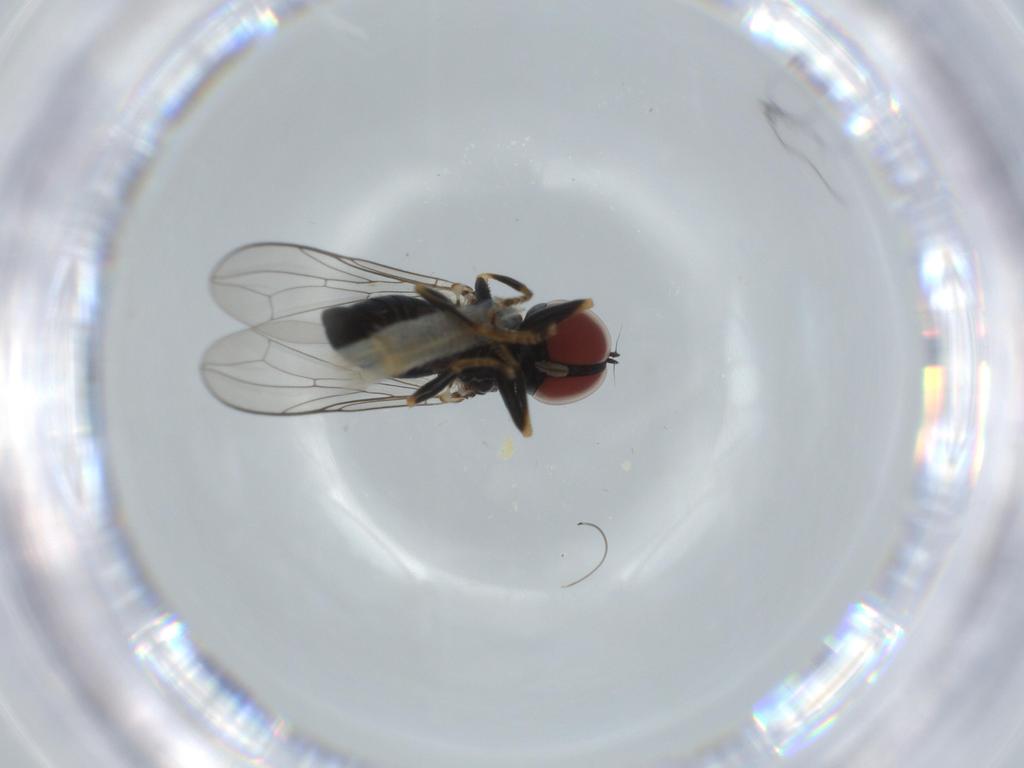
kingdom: Animalia
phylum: Arthropoda
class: Insecta
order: Diptera
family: Pipunculidae
